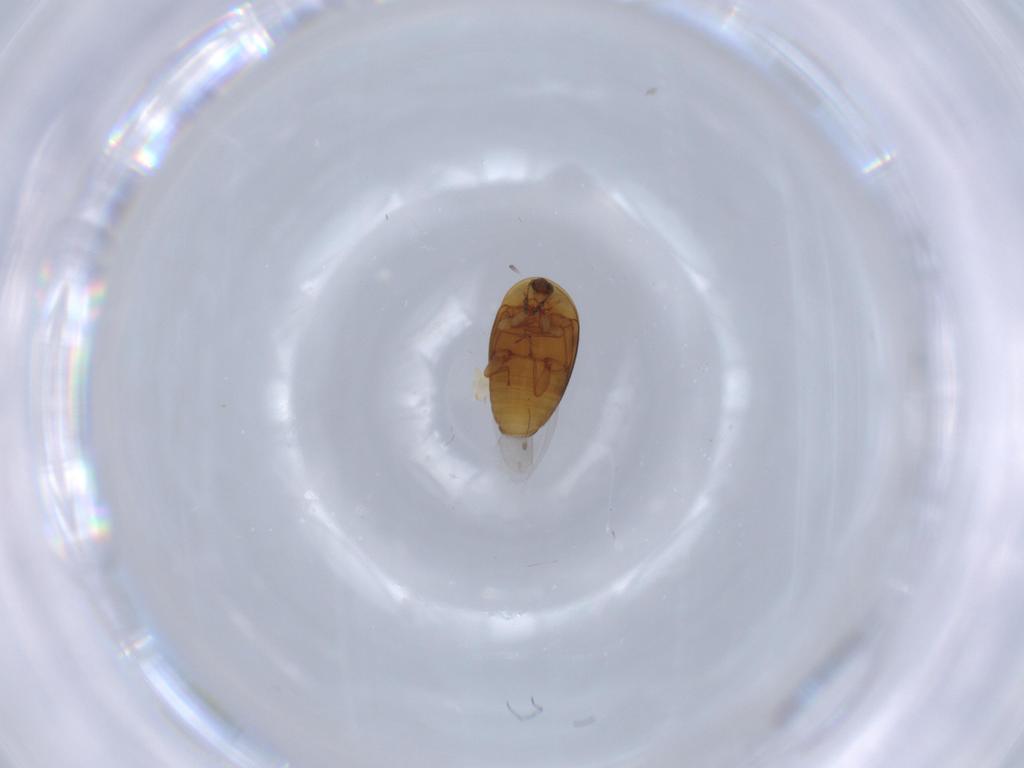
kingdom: Animalia
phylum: Arthropoda
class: Insecta
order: Coleoptera
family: Corylophidae
